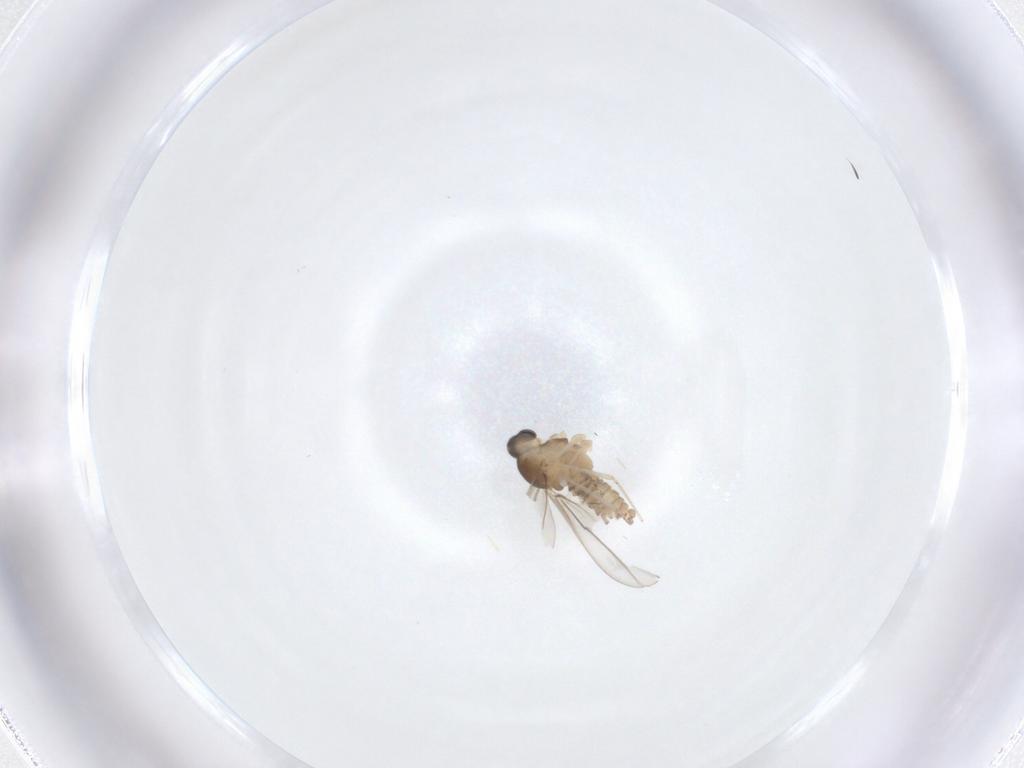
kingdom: Animalia
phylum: Arthropoda
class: Insecta
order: Diptera
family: Cecidomyiidae
